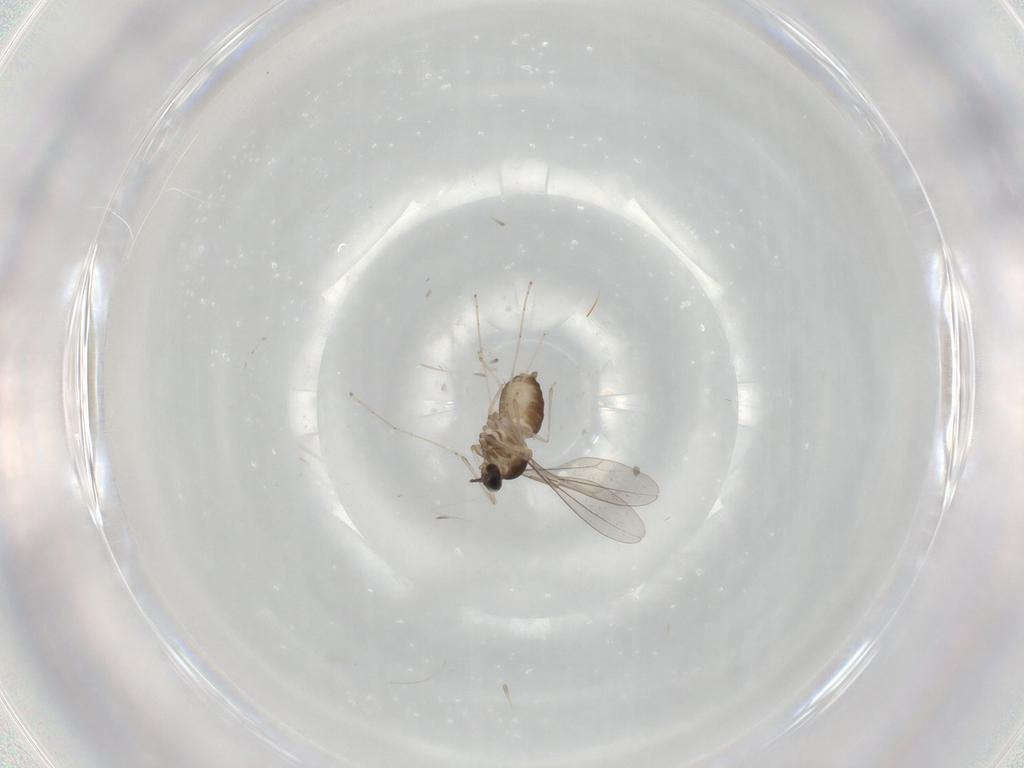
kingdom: Animalia
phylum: Arthropoda
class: Insecta
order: Diptera
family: Cecidomyiidae
